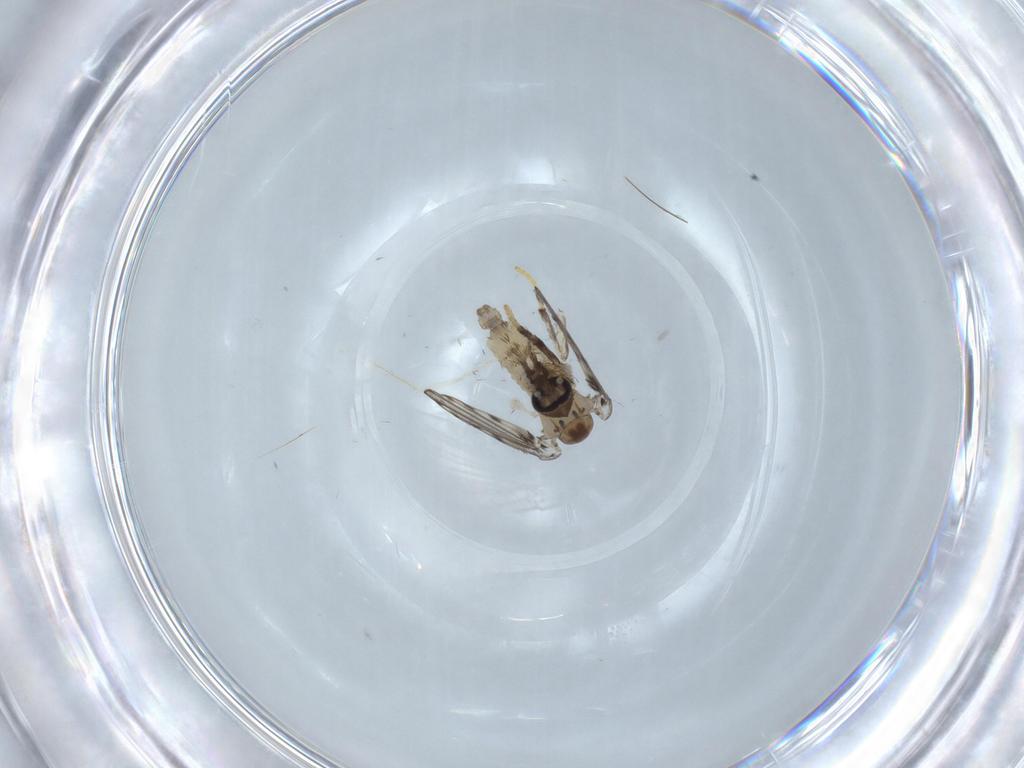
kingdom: Animalia
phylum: Arthropoda
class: Insecta
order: Diptera
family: Psychodidae
